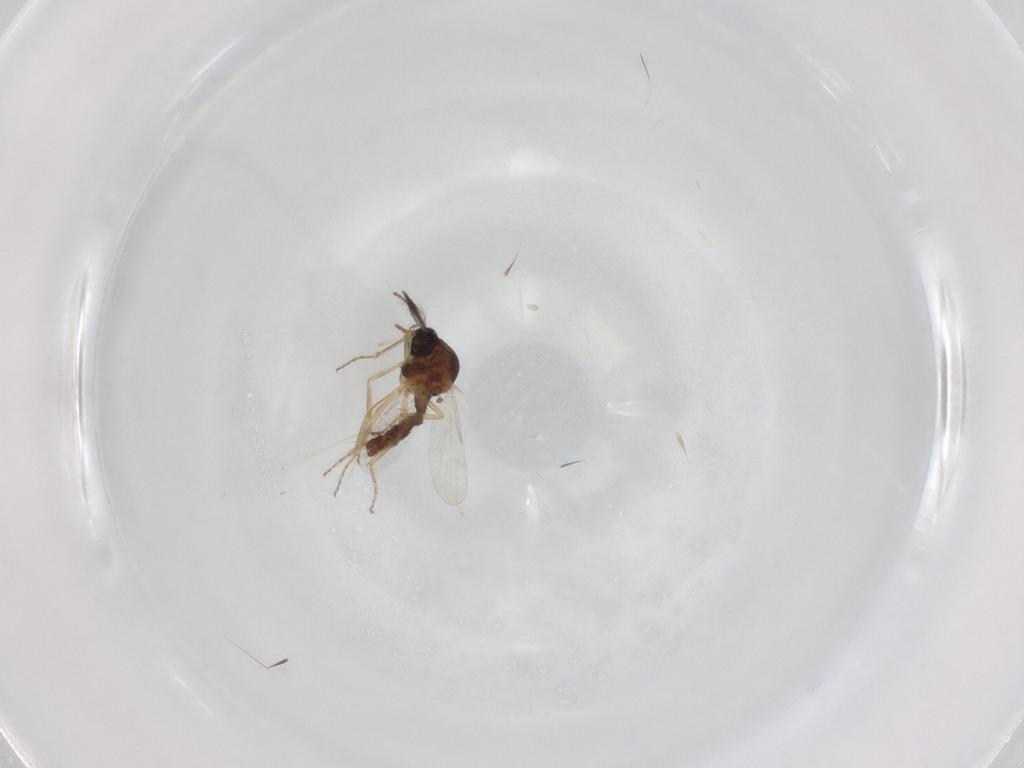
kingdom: Animalia
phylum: Arthropoda
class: Insecta
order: Diptera
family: Ceratopogonidae
